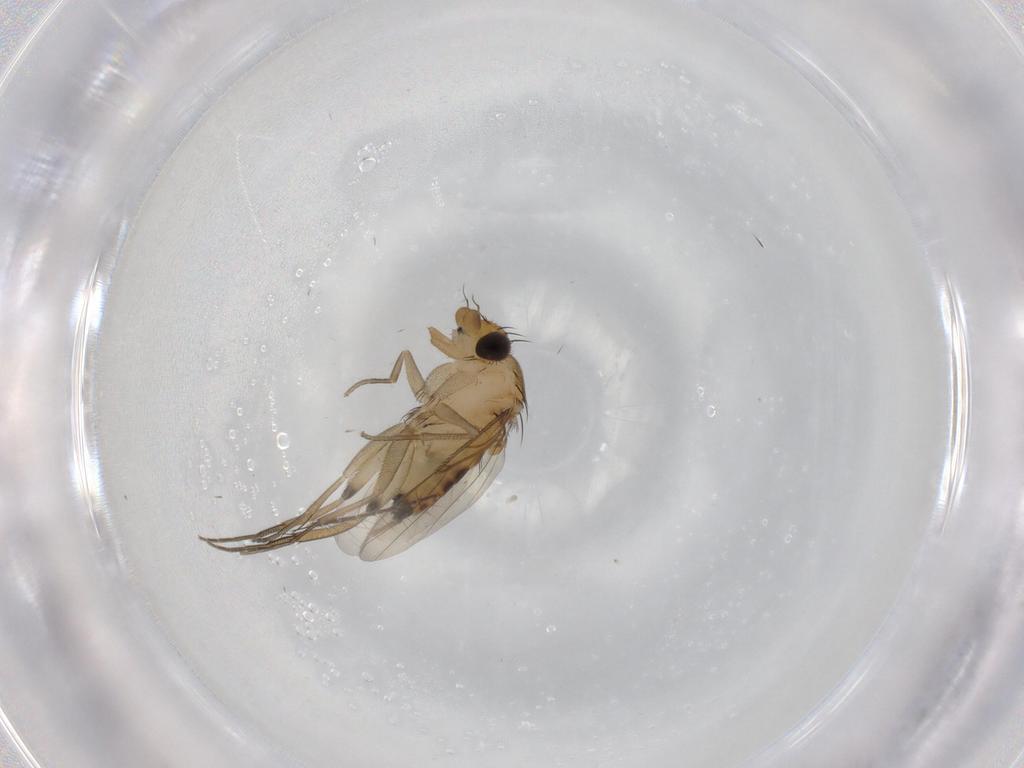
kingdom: Animalia
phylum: Arthropoda
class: Insecta
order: Diptera
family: Phoridae
